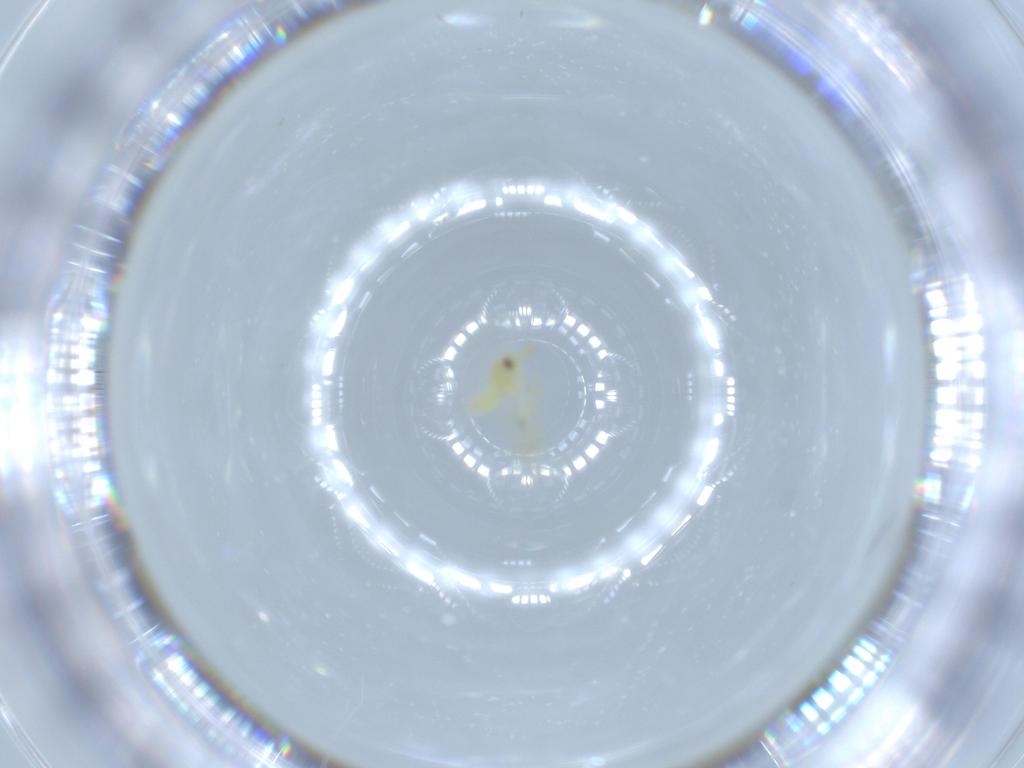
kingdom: Animalia
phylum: Arthropoda
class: Insecta
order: Hemiptera
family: Aleyrodidae
